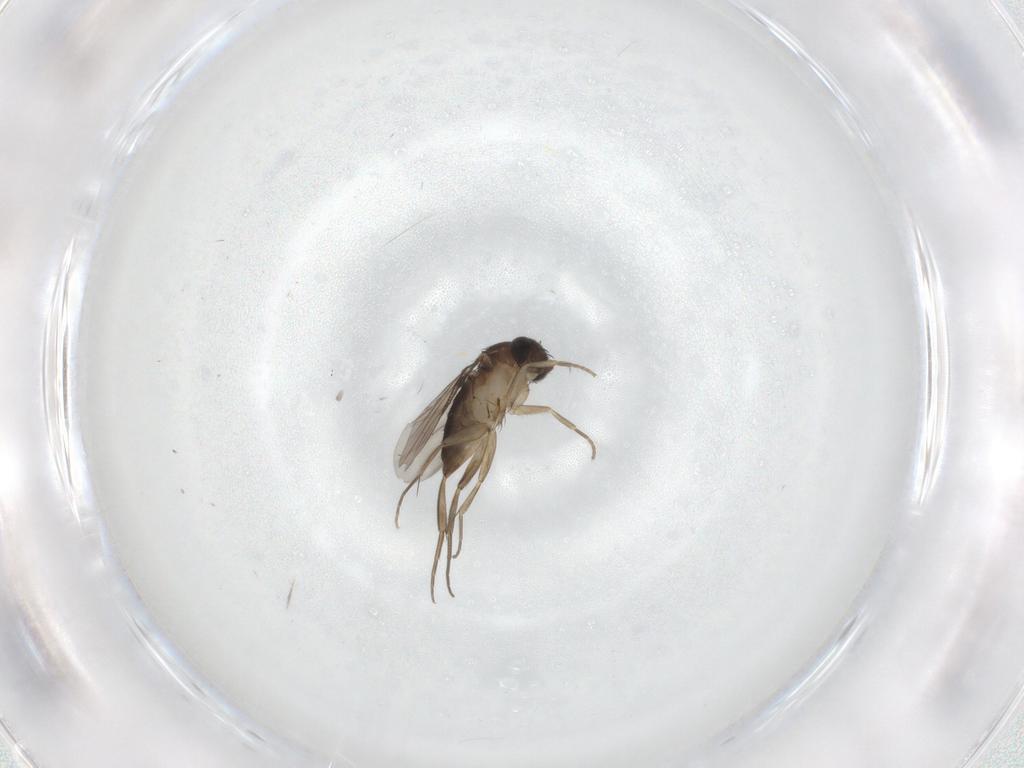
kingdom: Animalia
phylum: Arthropoda
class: Insecta
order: Diptera
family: Phoridae
